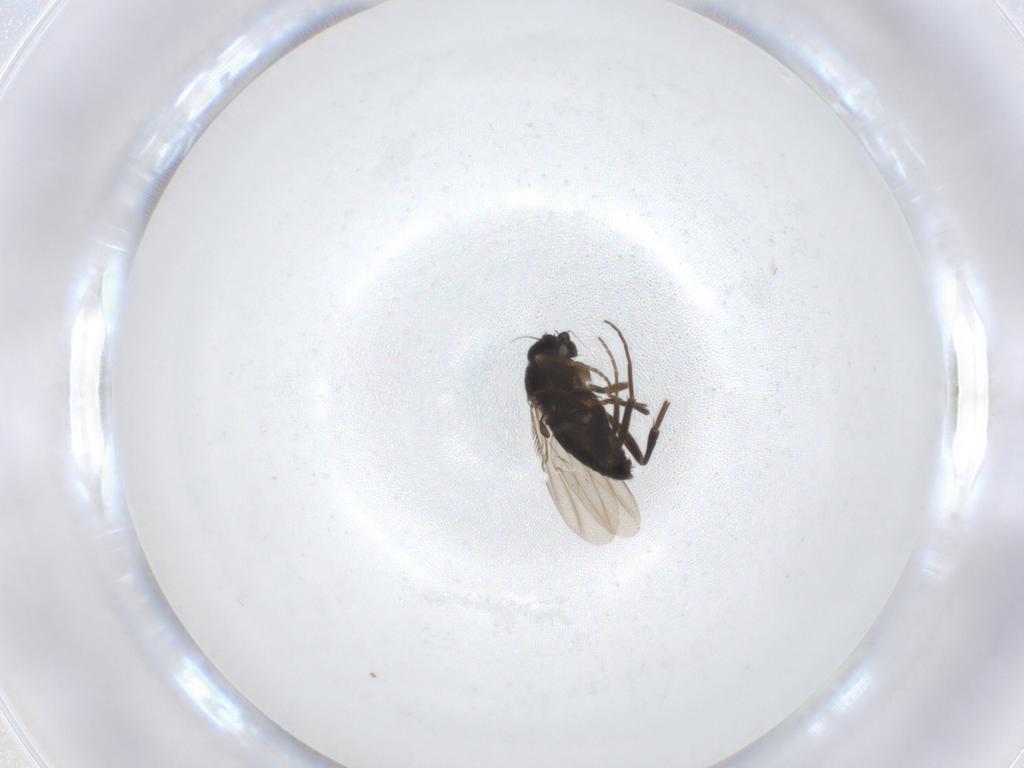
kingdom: Animalia
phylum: Arthropoda
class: Insecta
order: Diptera
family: Phoridae
